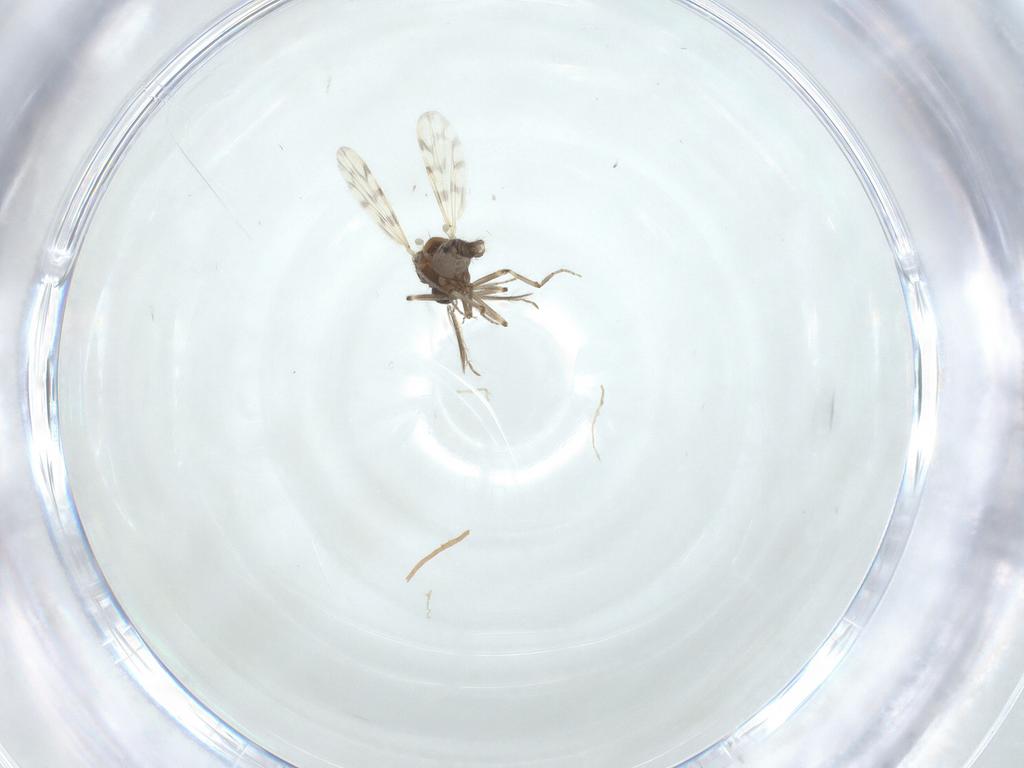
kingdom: Animalia
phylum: Arthropoda
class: Insecta
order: Diptera
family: Ceratopogonidae
